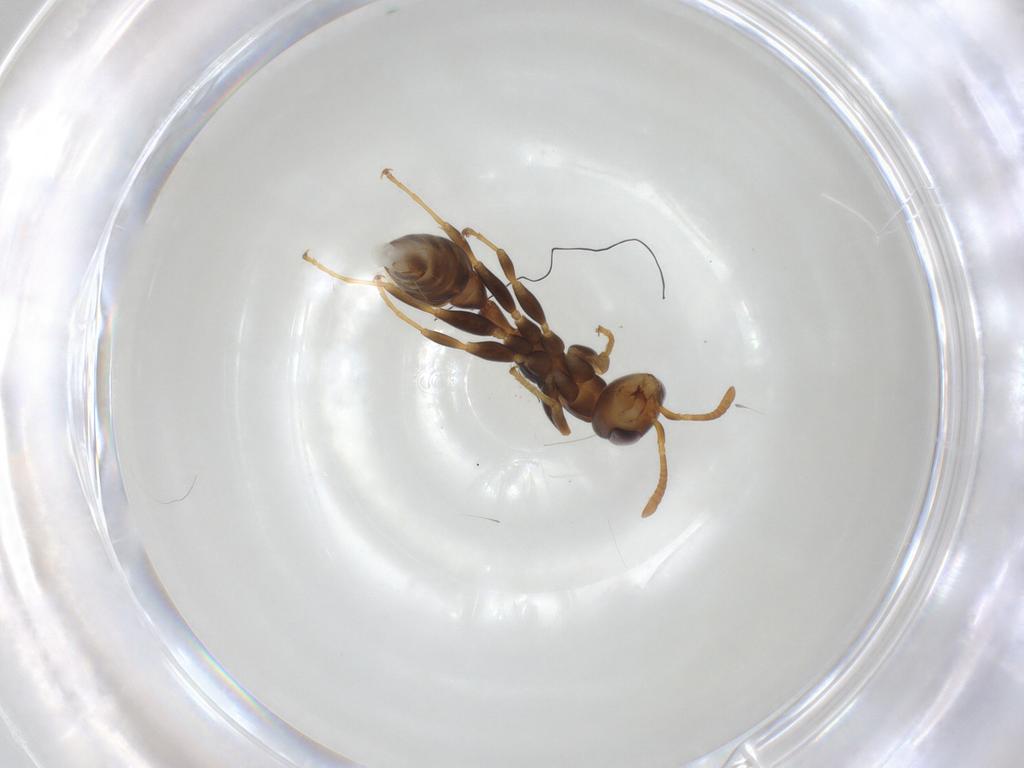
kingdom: Animalia
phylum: Arthropoda
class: Insecta
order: Hymenoptera
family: Formicidae
